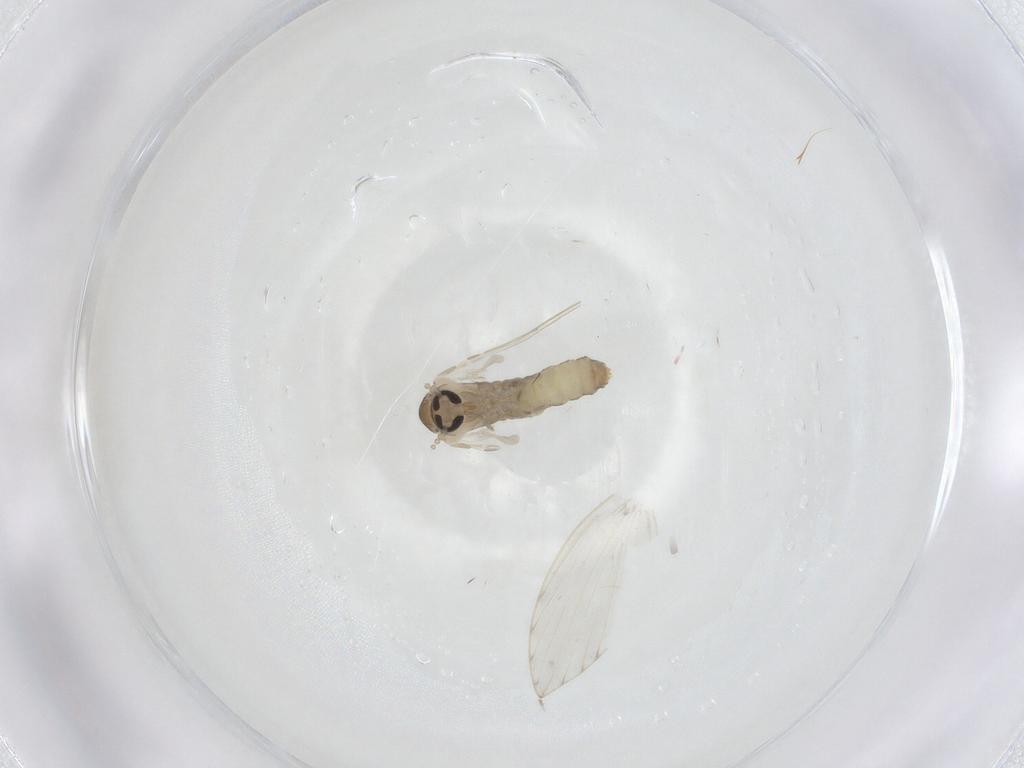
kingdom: Animalia
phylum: Arthropoda
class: Insecta
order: Diptera
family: Psychodidae
